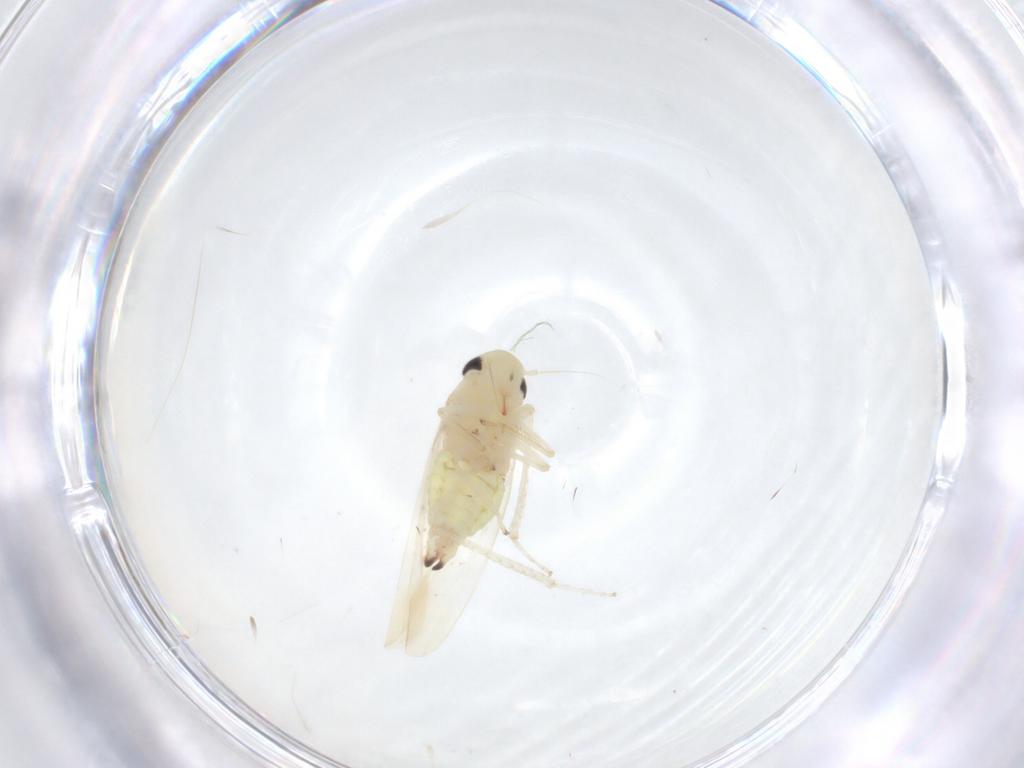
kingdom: Animalia
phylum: Arthropoda
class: Insecta
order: Hemiptera
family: Cicadellidae
